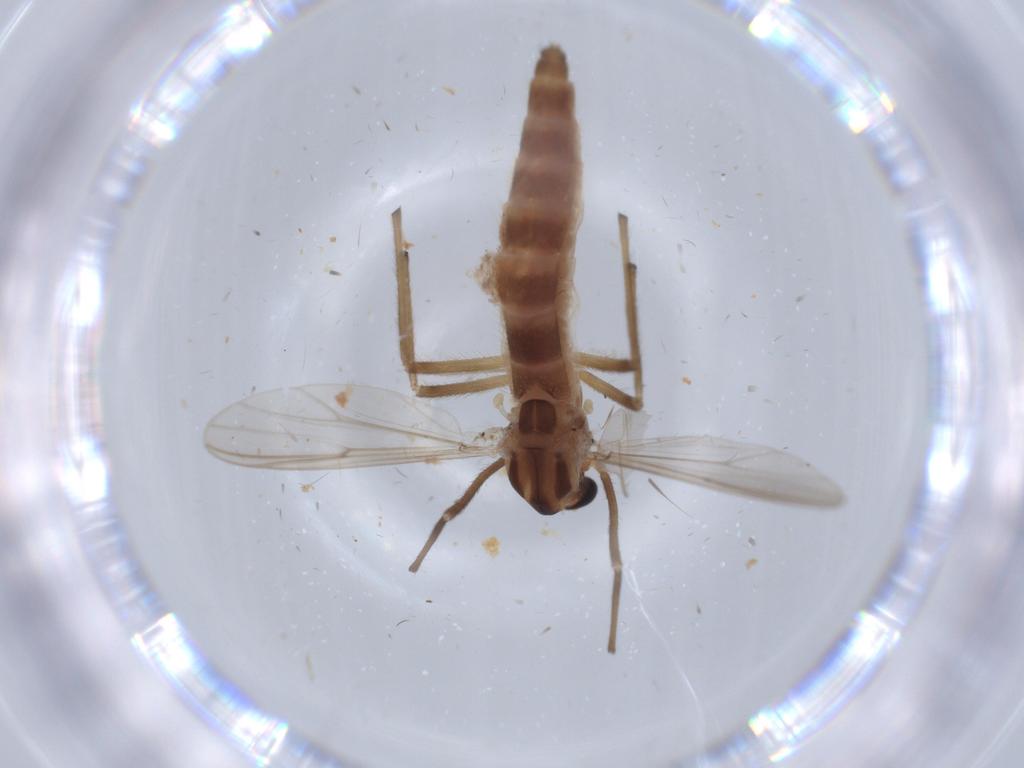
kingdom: Animalia
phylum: Arthropoda
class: Insecta
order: Diptera
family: Chironomidae
